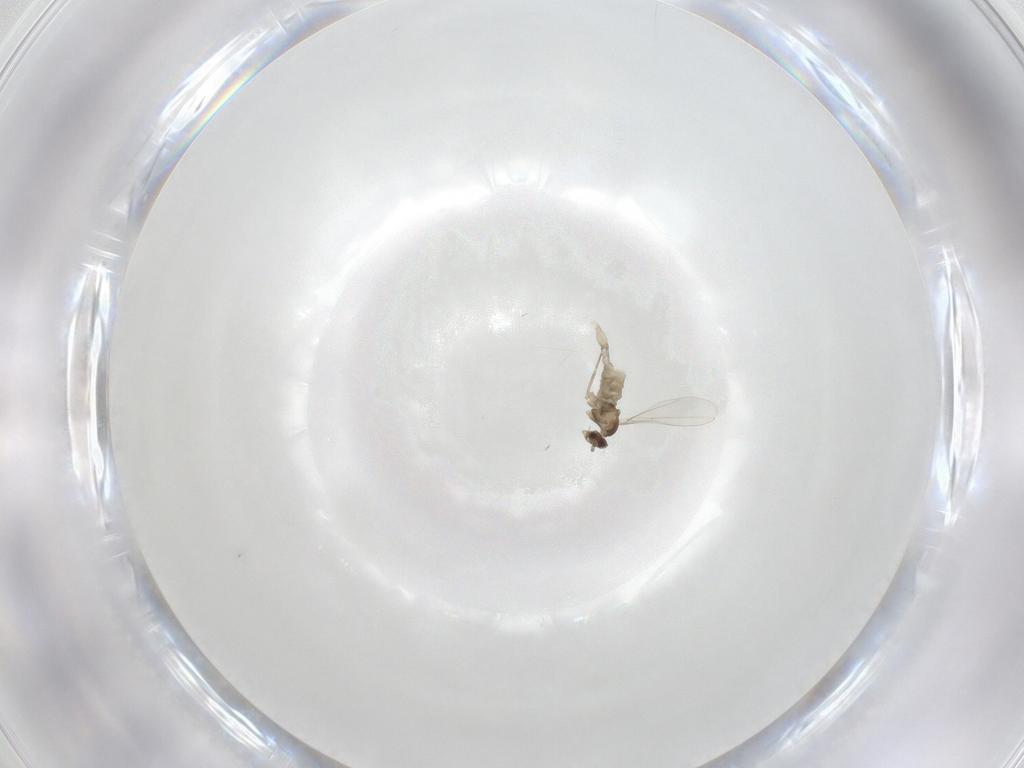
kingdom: Animalia
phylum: Arthropoda
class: Insecta
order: Diptera
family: Cecidomyiidae
